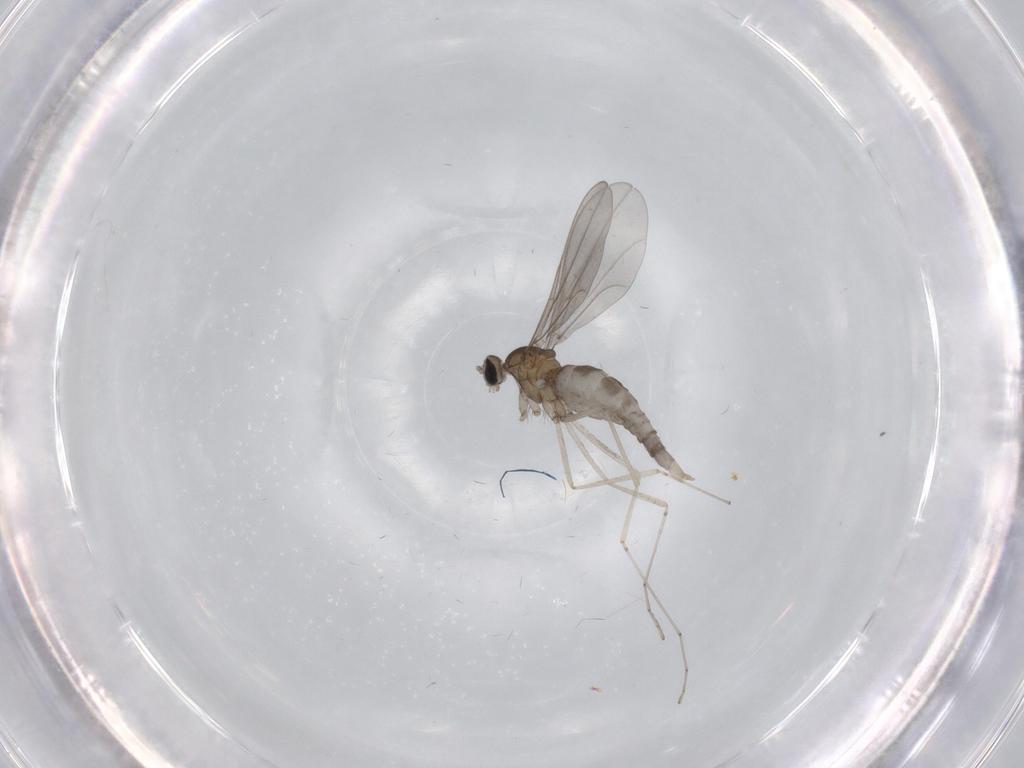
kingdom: Animalia
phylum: Arthropoda
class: Insecta
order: Diptera
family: Cecidomyiidae
